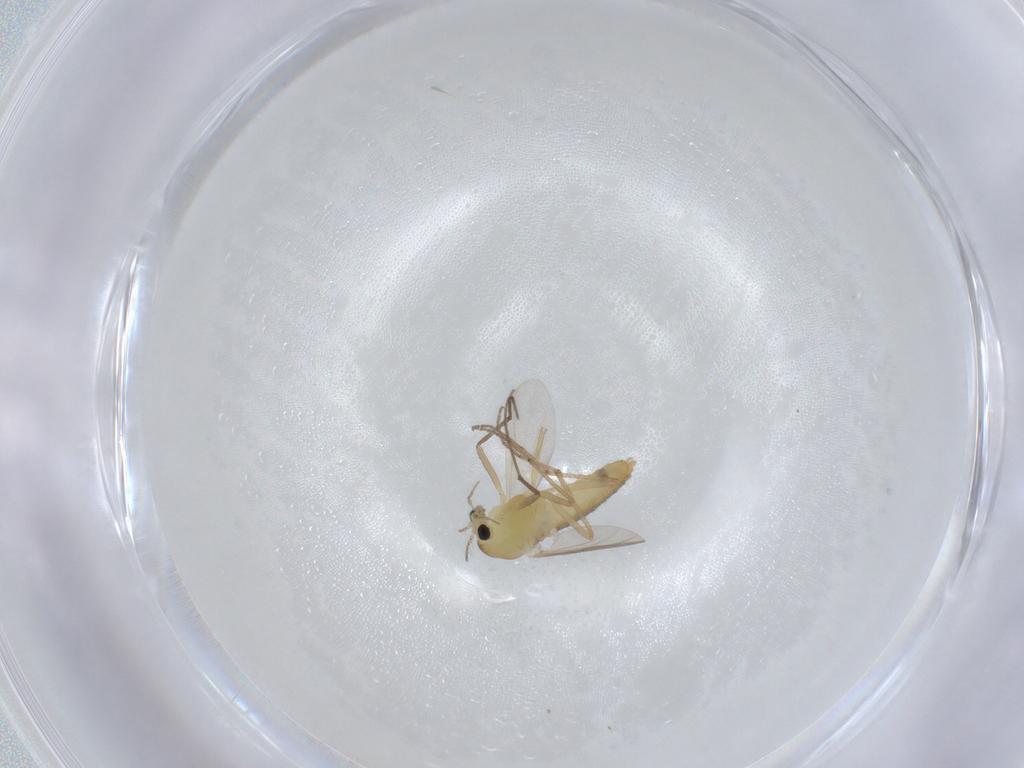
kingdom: Animalia
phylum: Arthropoda
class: Insecta
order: Diptera
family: Chironomidae
